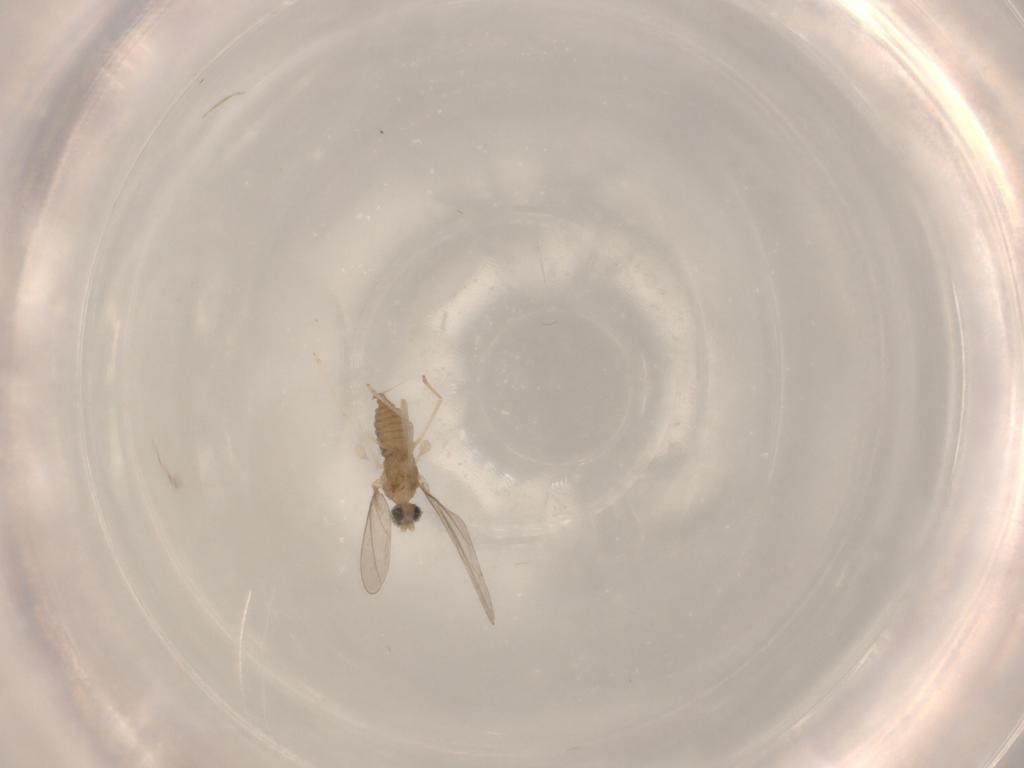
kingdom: Animalia
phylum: Arthropoda
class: Insecta
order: Diptera
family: Cecidomyiidae
